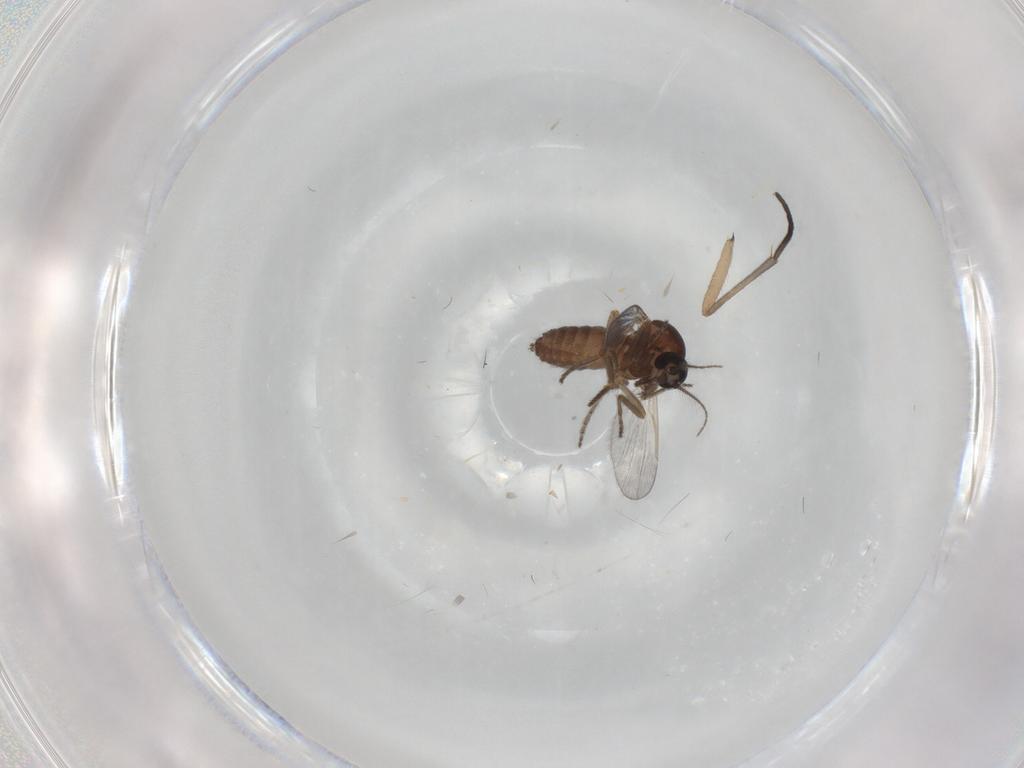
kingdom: Animalia
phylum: Arthropoda
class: Insecta
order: Diptera
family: Ceratopogonidae
